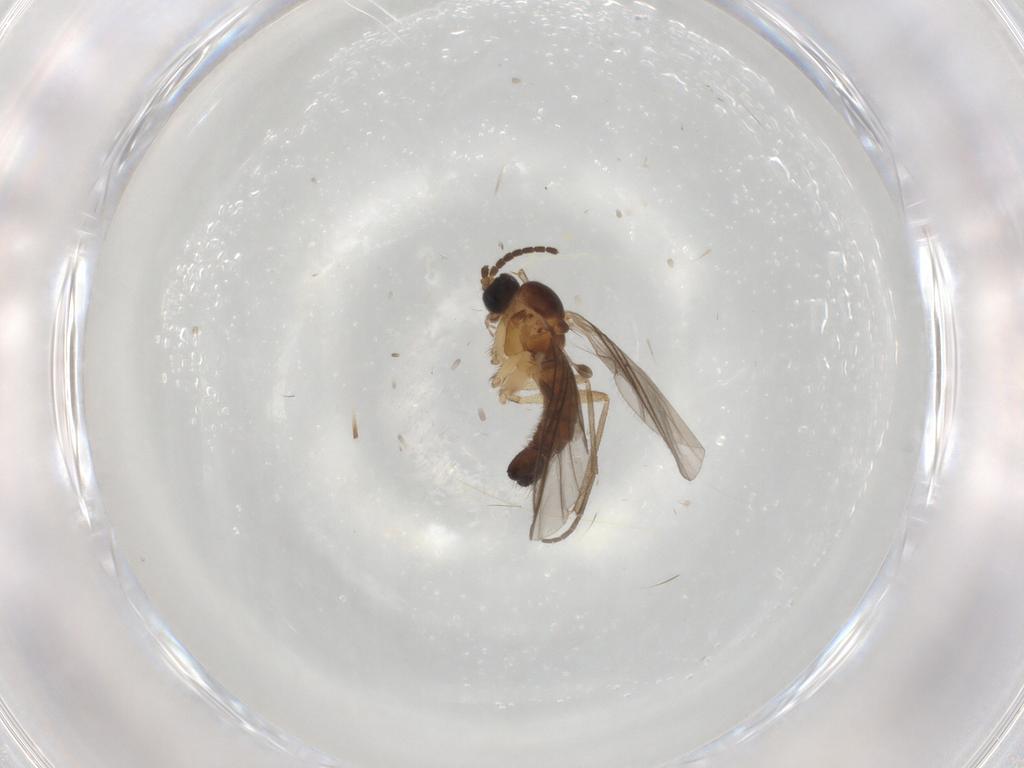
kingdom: Animalia
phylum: Arthropoda
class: Insecta
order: Diptera
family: Sciaridae
